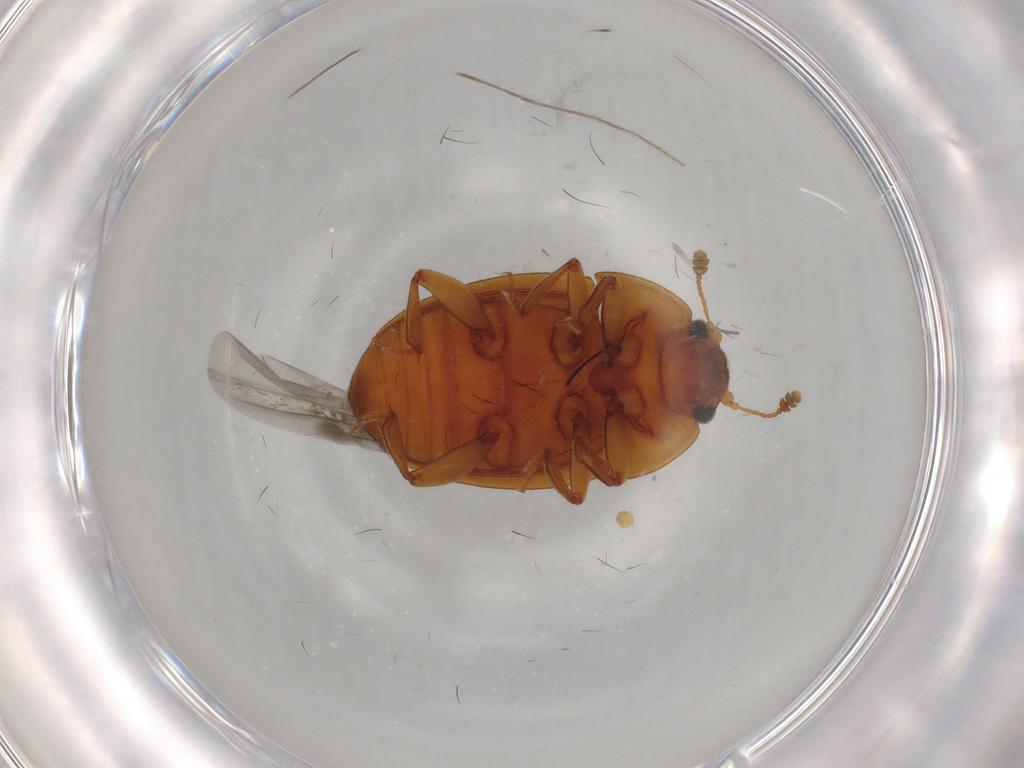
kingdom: Animalia
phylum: Arthropoda
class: Insecta
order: Coleoptera
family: Nitidulidae
